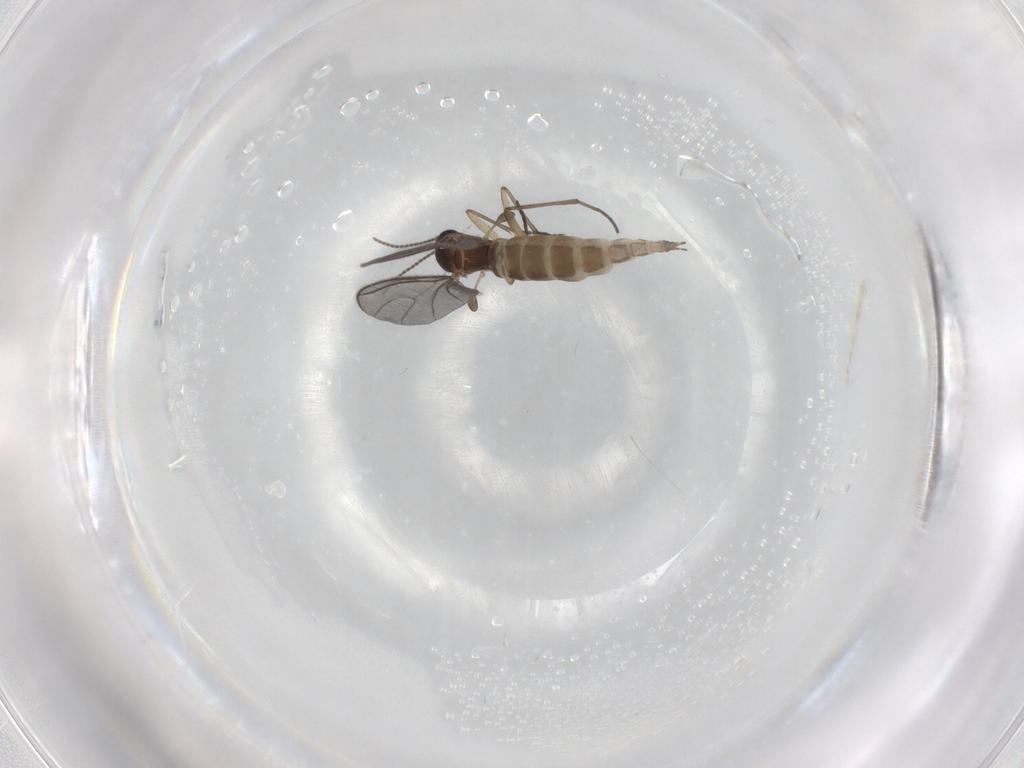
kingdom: Animalia
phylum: Arthropoda
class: Insecta
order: Diptera
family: Sciaridae
